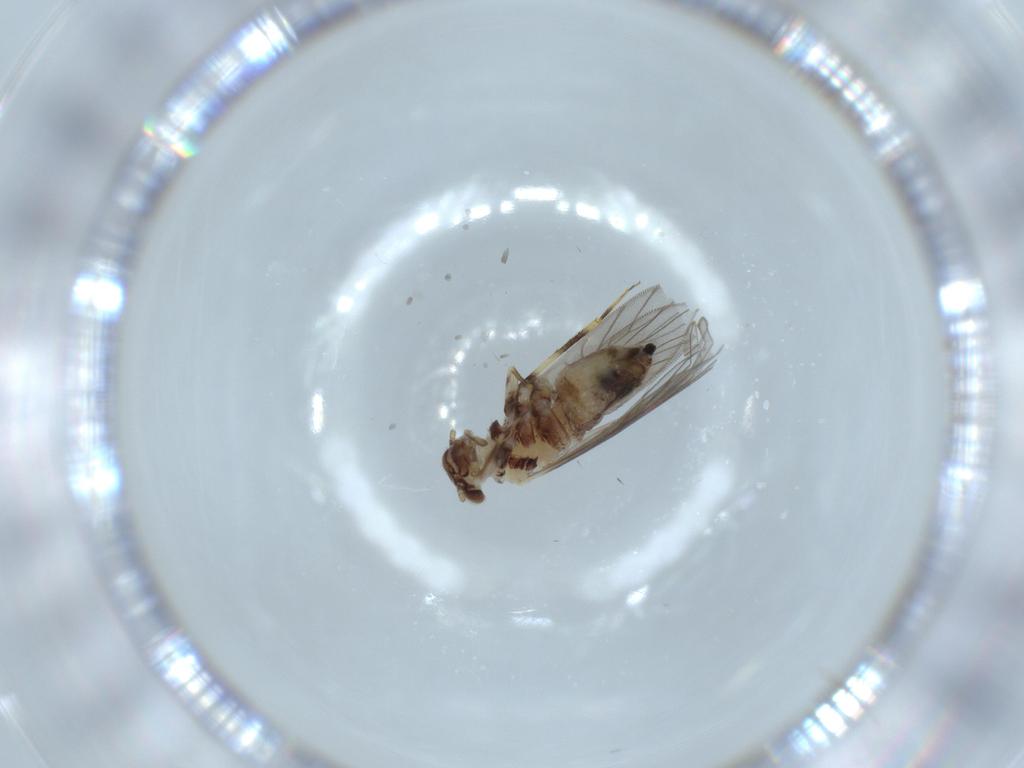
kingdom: Animalia
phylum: Arthropoda
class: Insecta
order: Psocodea
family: Lepidopsocidae
